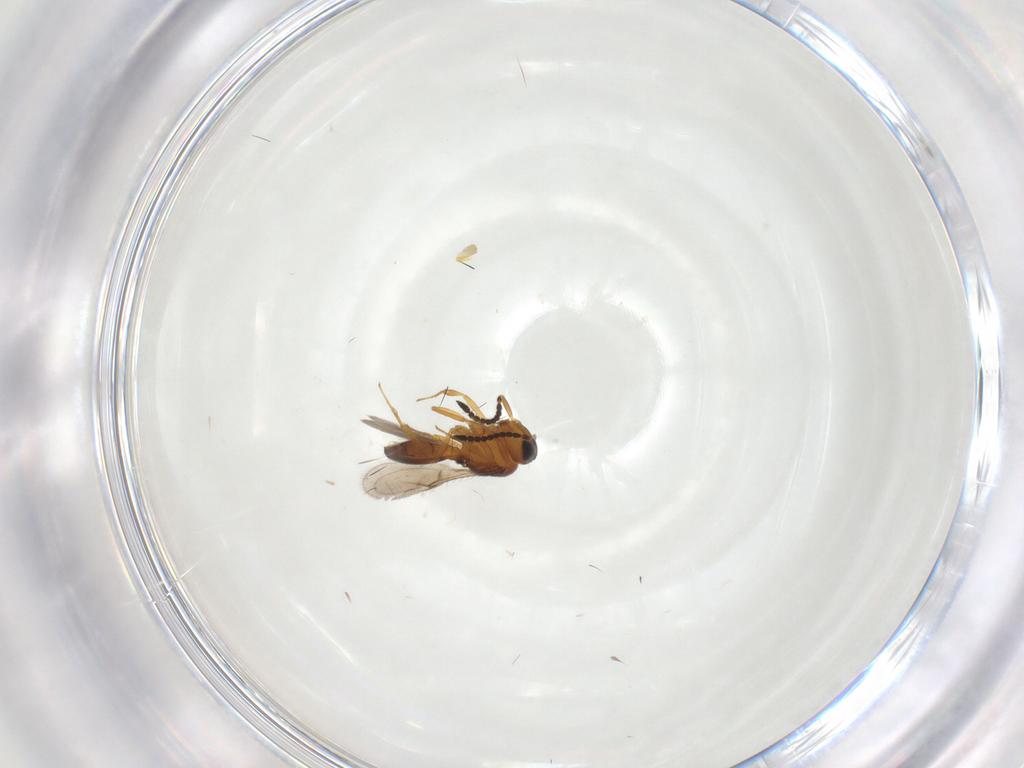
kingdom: Animalia
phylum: Arthropoda
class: Insecta
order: Hymenoptera
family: Scelionidae
